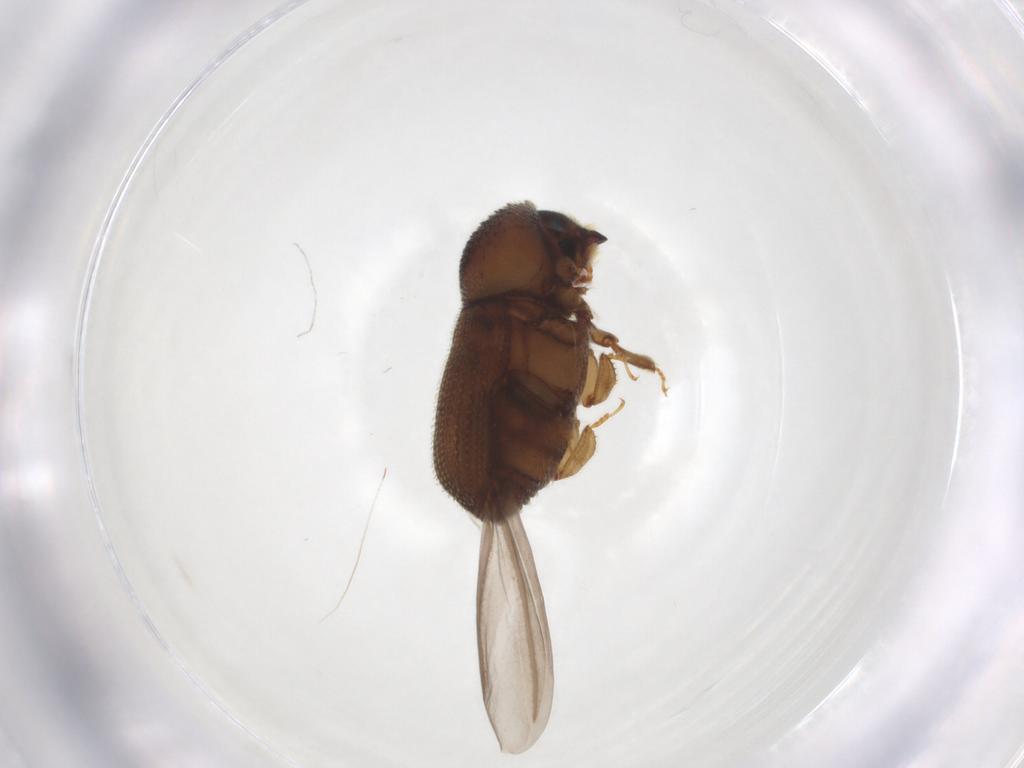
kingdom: Animalia
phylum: Arthropoda
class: Insecta
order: Coleoptera
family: Curculionidae
